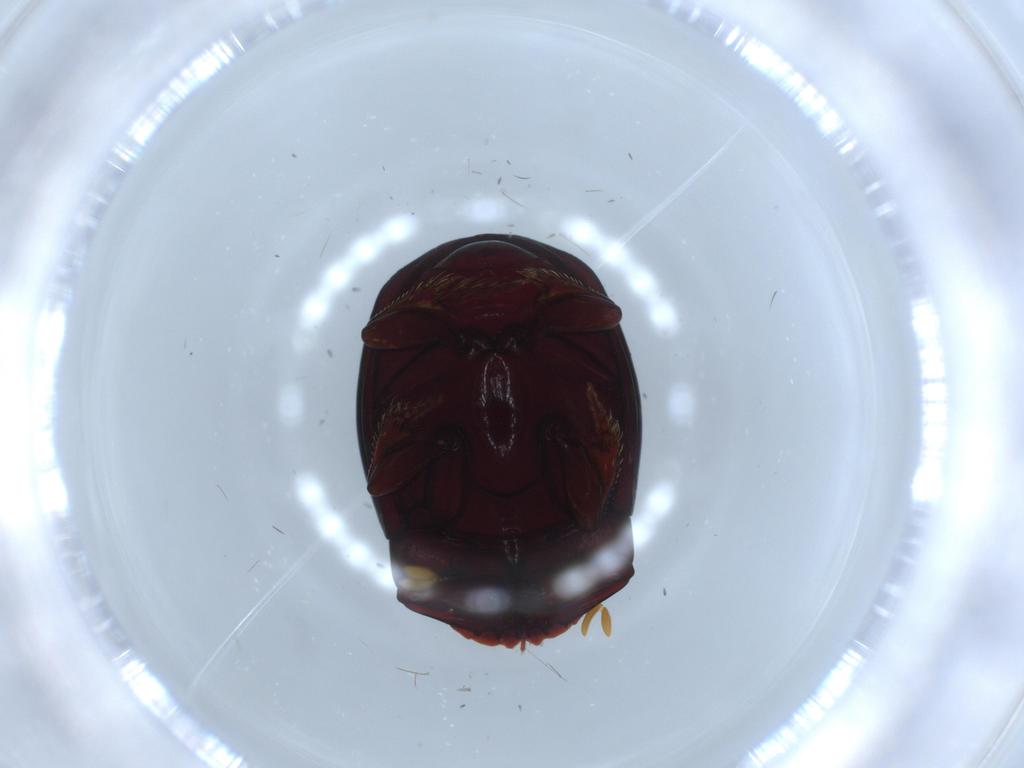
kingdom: Animalia
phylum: Arthropoda
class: Insecta
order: Coleoptera
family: Scarabaeidae
